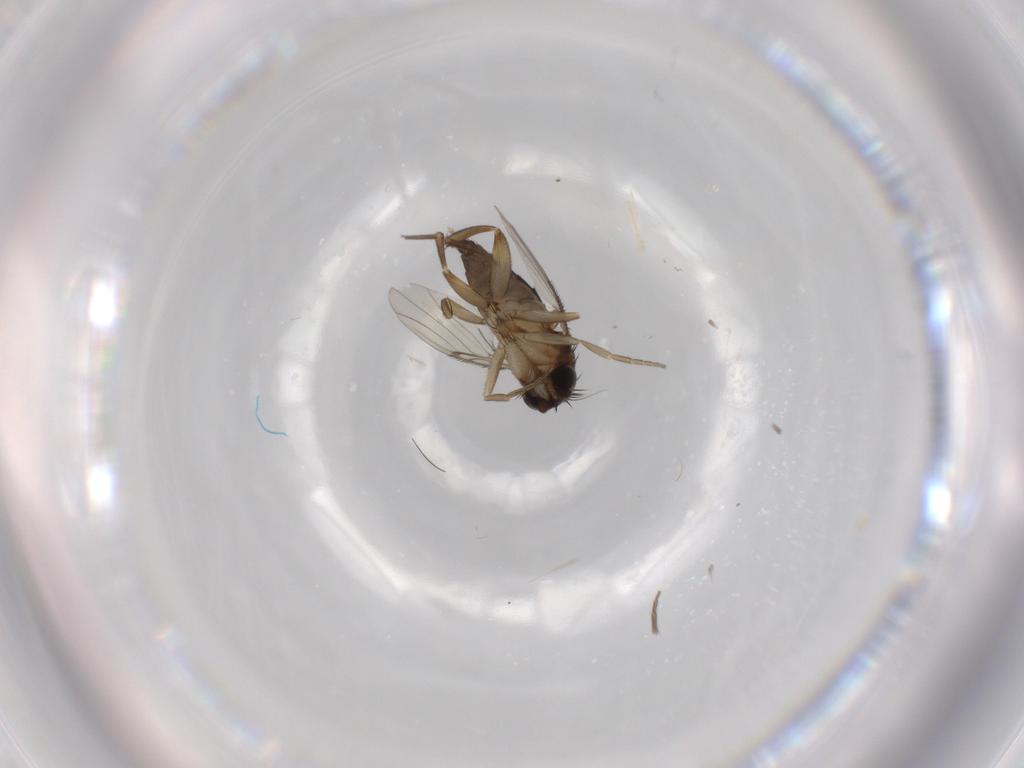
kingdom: Animalia
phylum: Arthropoda
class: Insecta
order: Diptera
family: Phoridae
